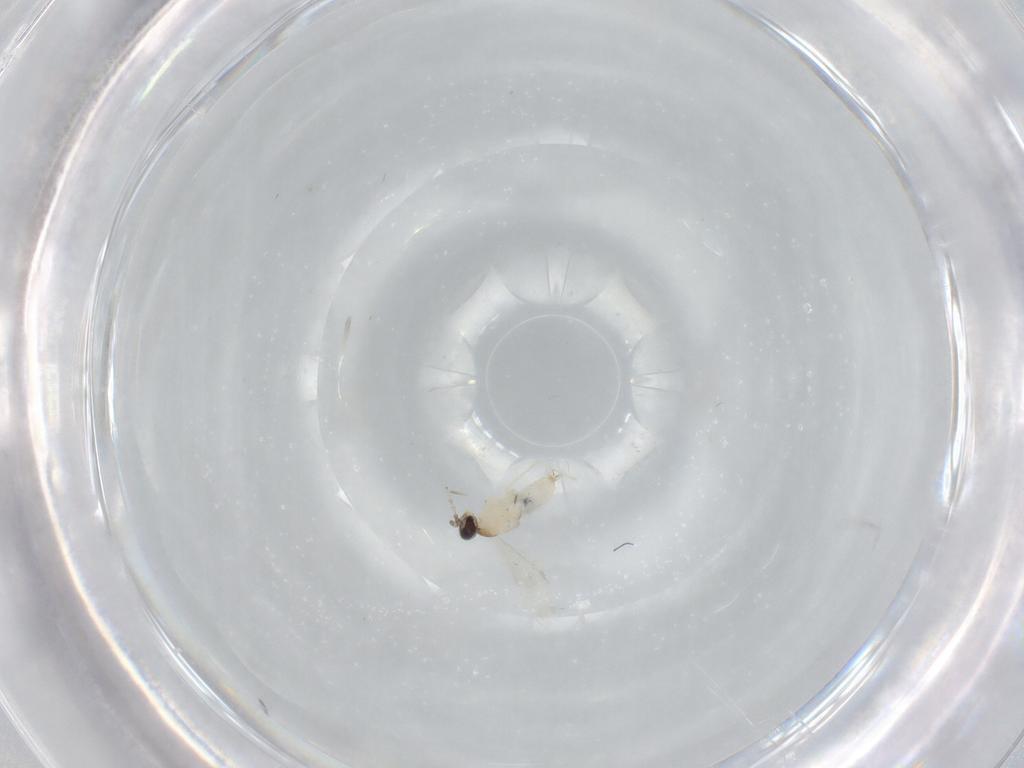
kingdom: Animalia
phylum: Arthropoda
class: Insecta
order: Diptera
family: Cecidomyiidae
